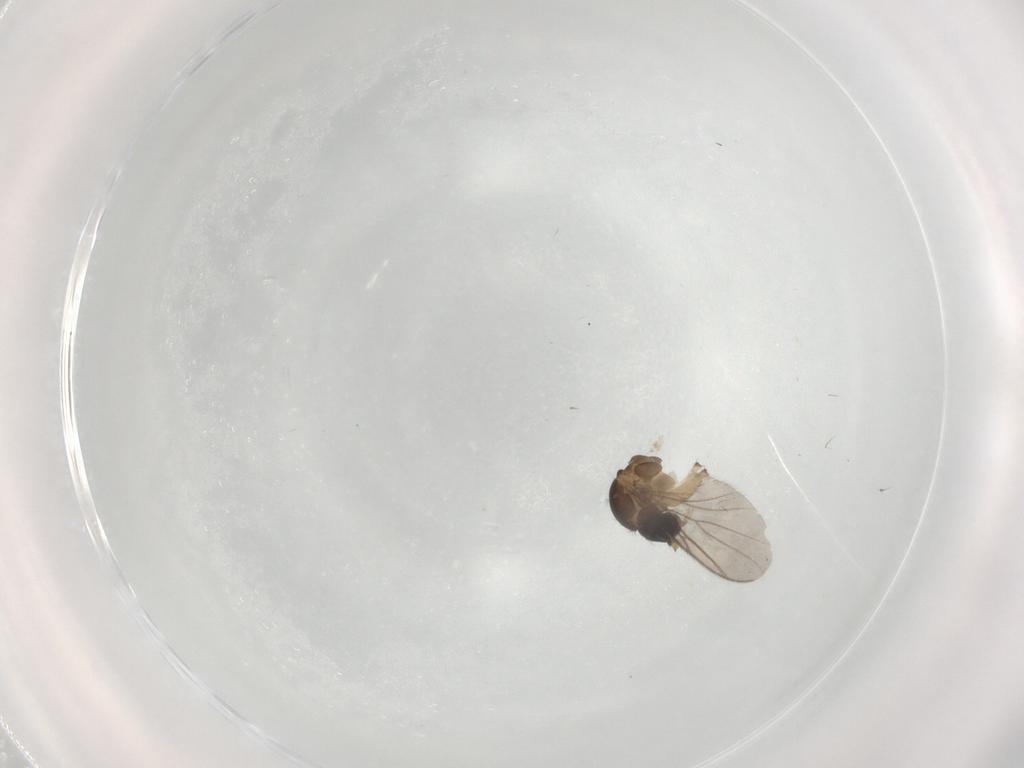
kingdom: Animalia
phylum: Arthropoda
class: Insecta
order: Diptera
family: Mycetophilidae
